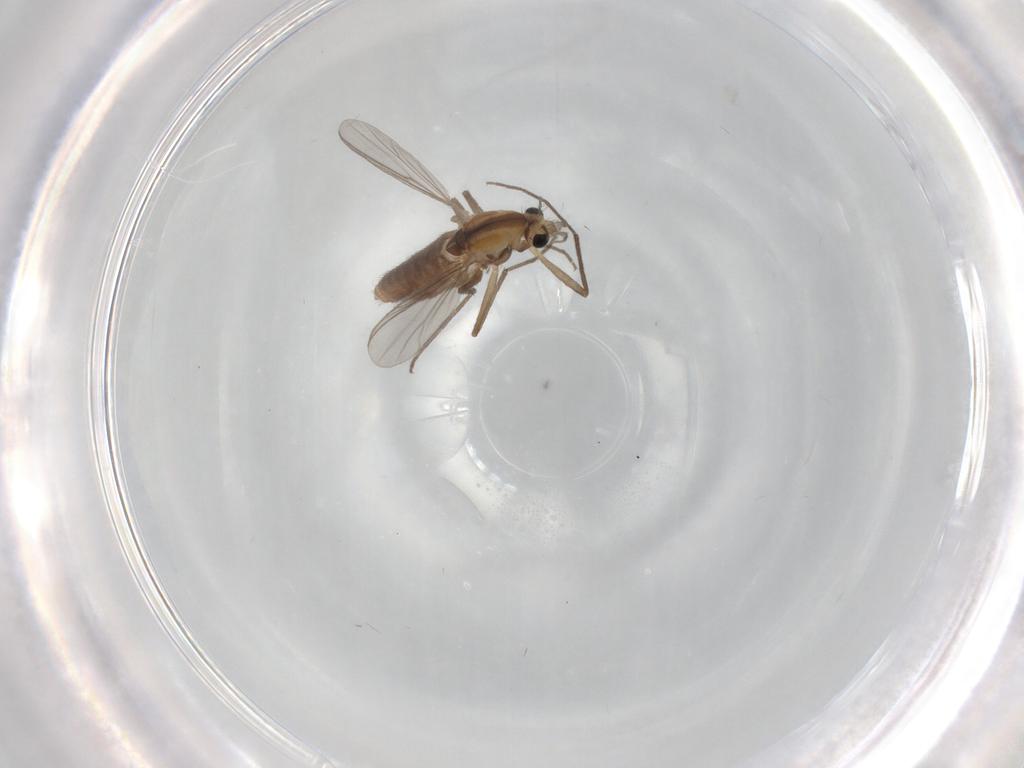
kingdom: Animalia
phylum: Arthropoda
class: Insecta
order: Diptera
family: Chironomidae
